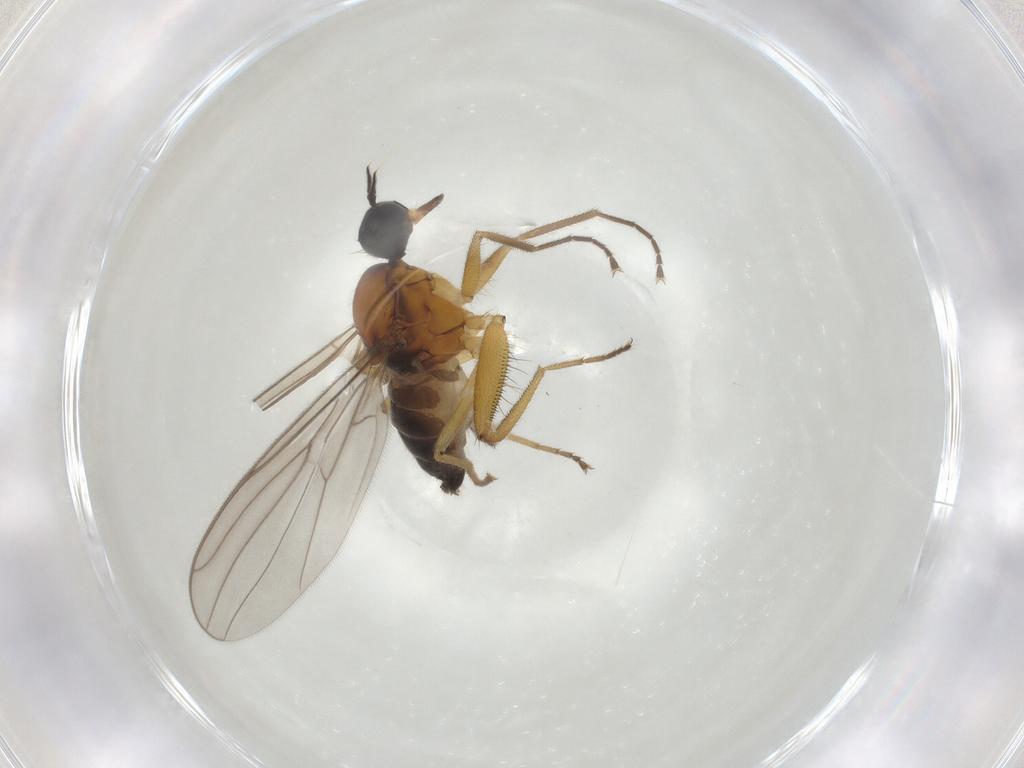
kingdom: Animalia
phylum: Arthropoda
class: Insecta
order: Diptera
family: Hybotidae
